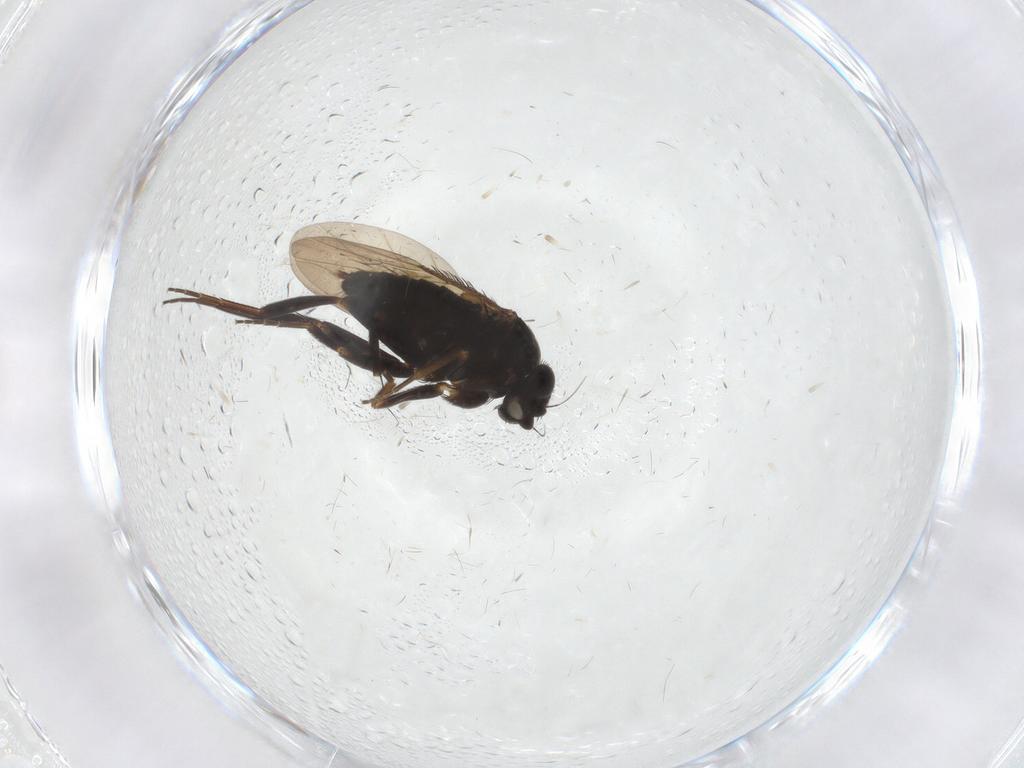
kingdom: Animalia
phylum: Arthropoda
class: Insecta
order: Diptera
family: Phoridae
